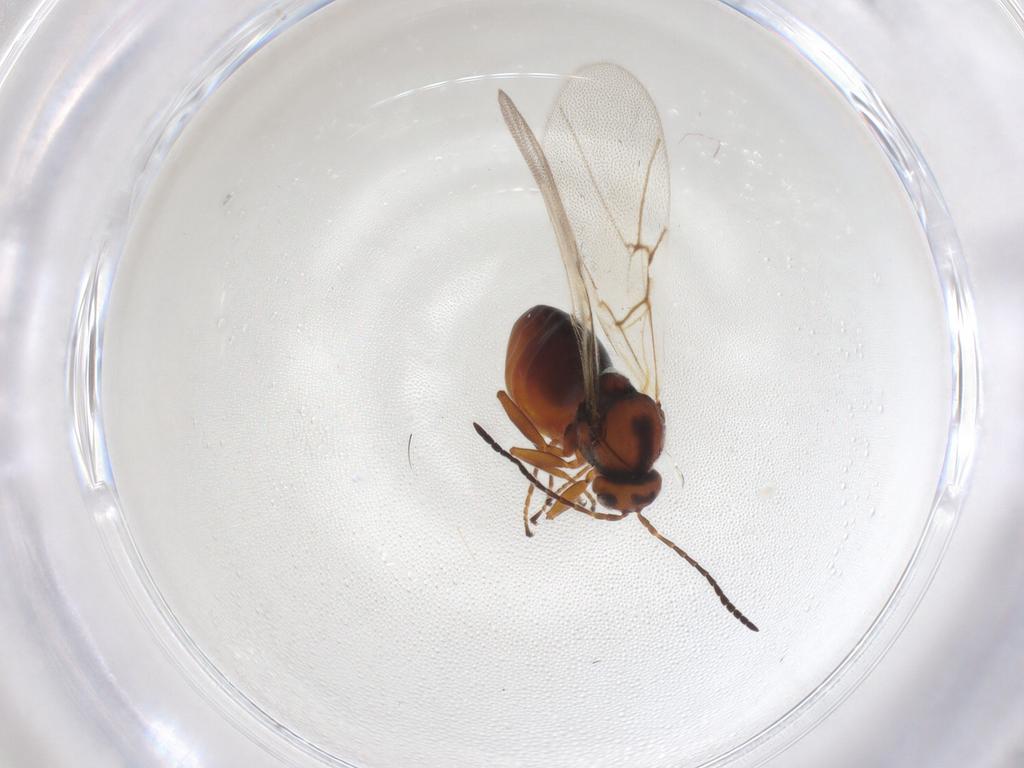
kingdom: Animalia
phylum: Arthropoda
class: Insecta
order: Hymenoptera
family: Cynipidae
